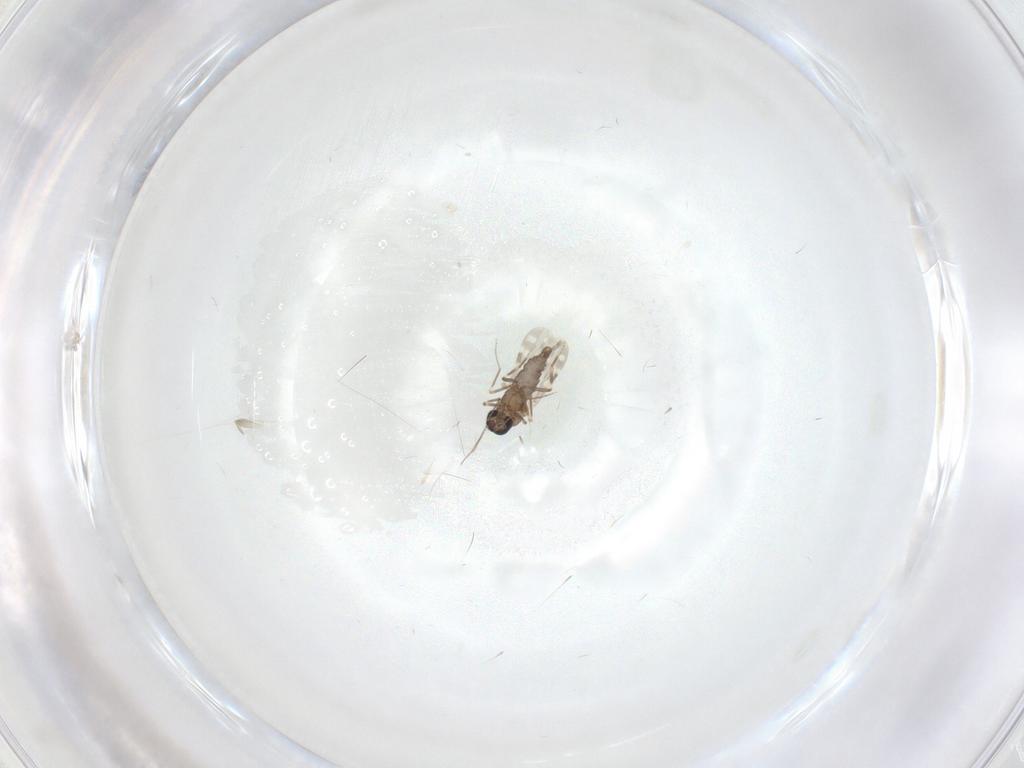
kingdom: Animalia
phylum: Arthropoda
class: Insecta
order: Diptera
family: Ceratopogonidae
